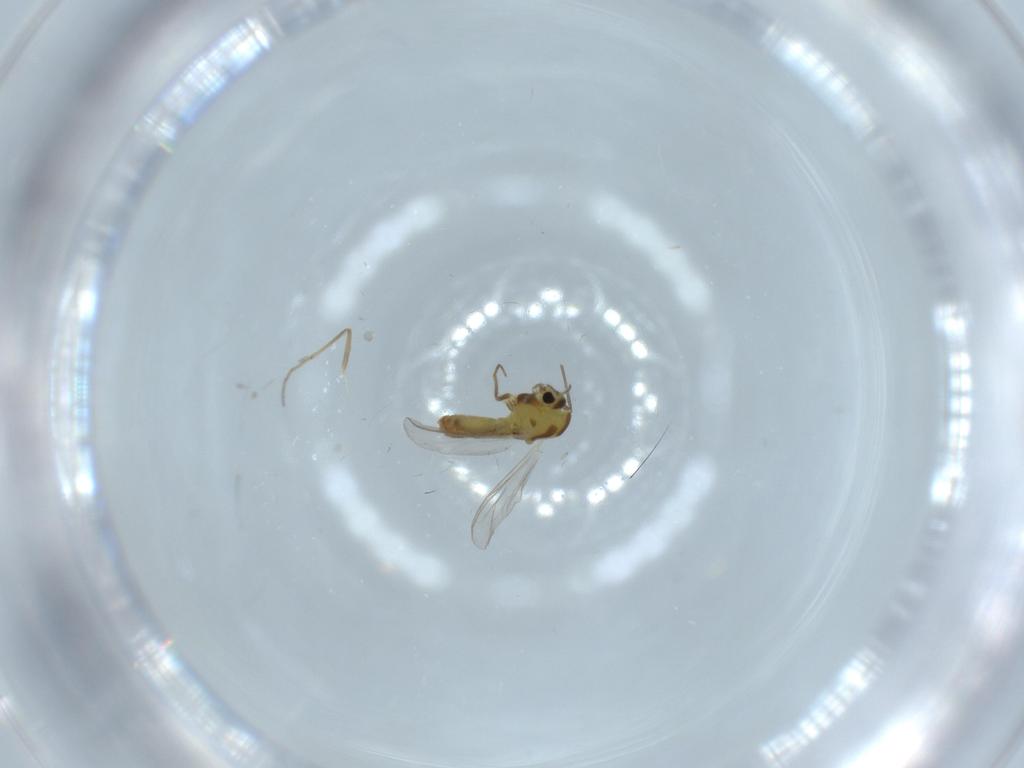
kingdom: Animalia
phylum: Arthropoda
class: Insecta
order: Diptera
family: Chironomidae
